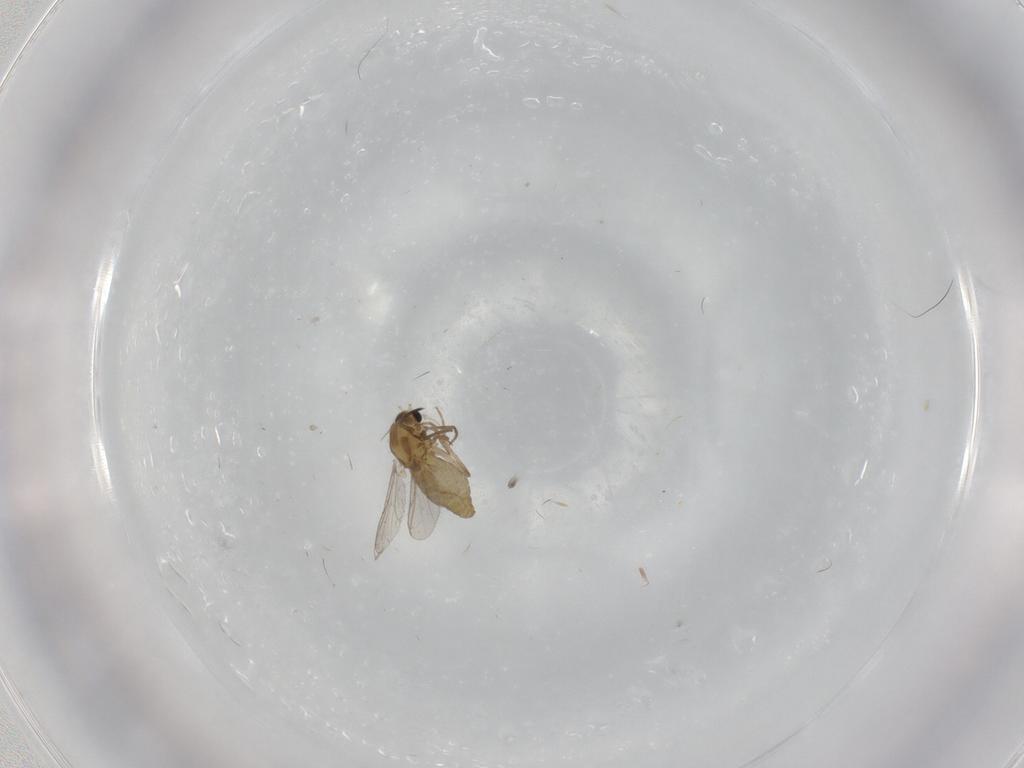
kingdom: Animalia
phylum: Arthropoda
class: Insecta
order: Diptera
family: Chironomidae
